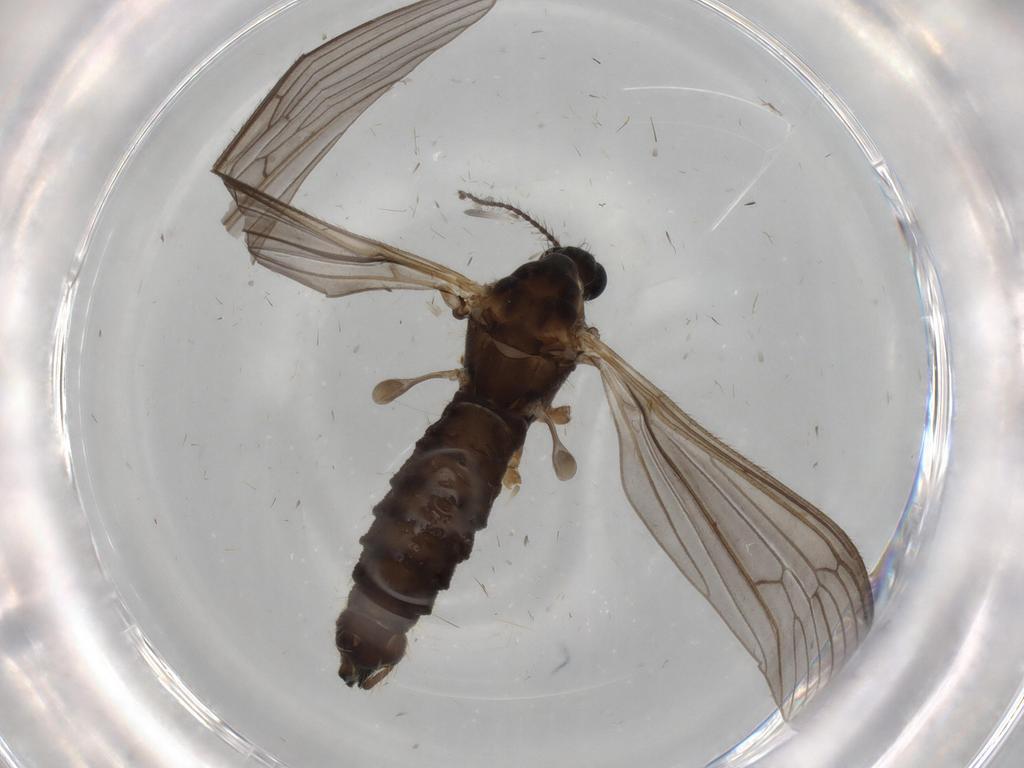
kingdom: Animalia
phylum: Arthropoda
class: Insecta
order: Diptera
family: Limoniidae
